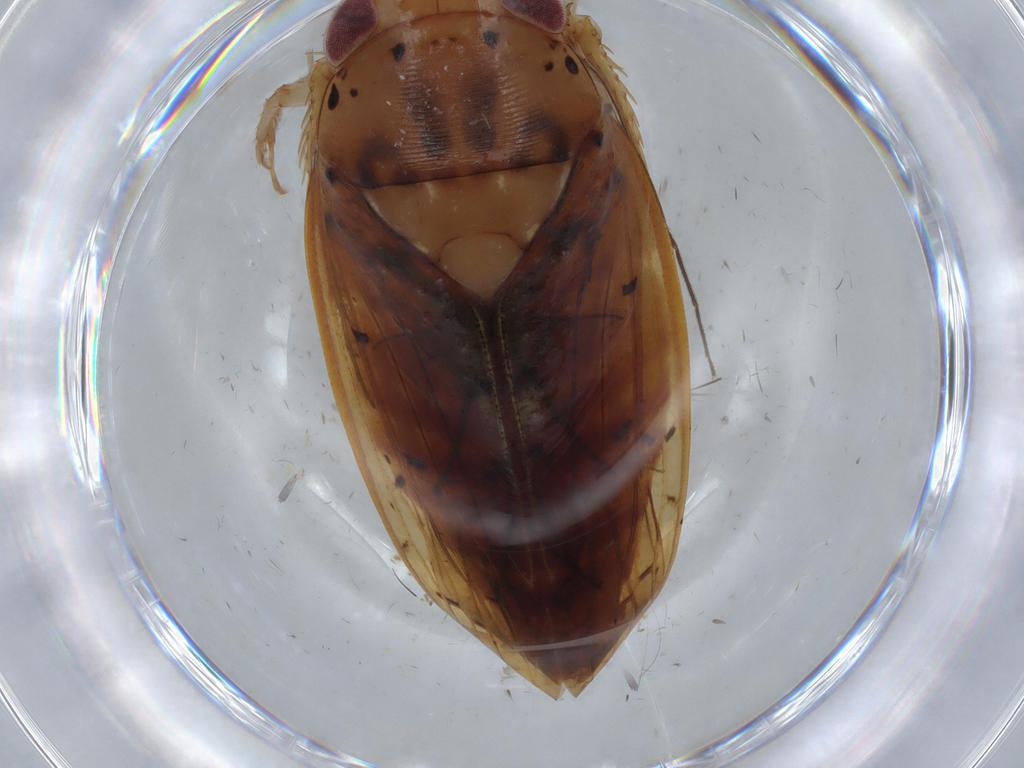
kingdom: Animalia
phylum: Arthropoda
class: Insecta
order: Hemiptera
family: Cicadellidae
